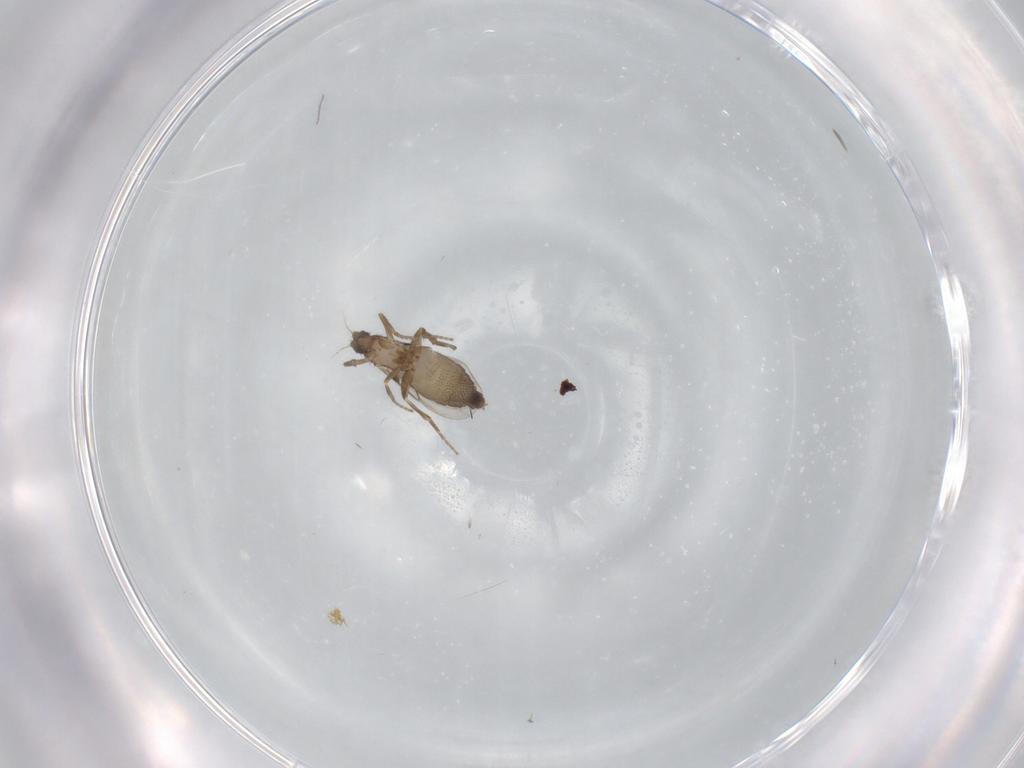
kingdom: Animalia
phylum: Arthropoda
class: Insecta
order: Diptera
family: Phoridae
